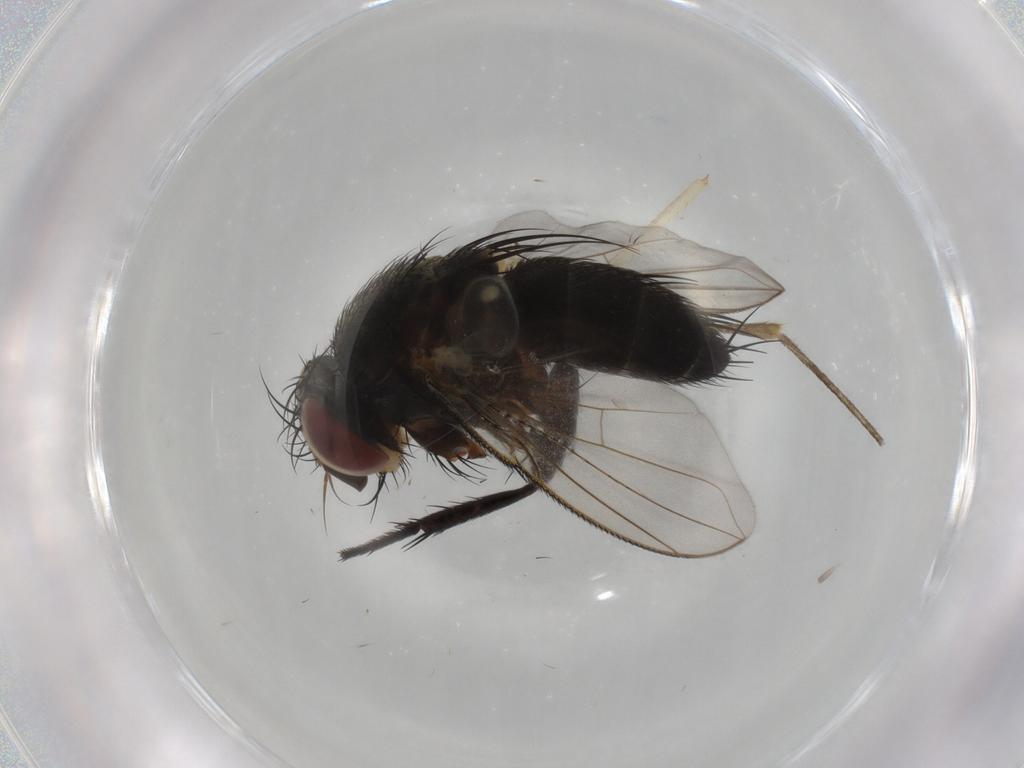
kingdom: Animalia
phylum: Arthropoda
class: Insecta
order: Diptera
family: Tachinidae
